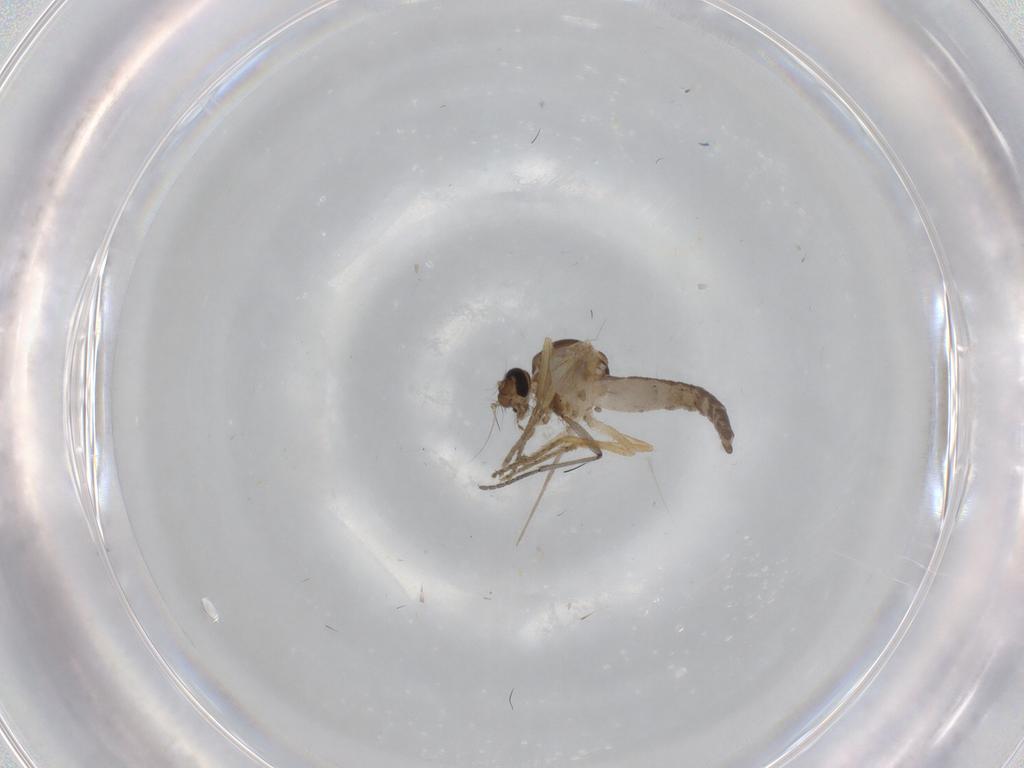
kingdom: Animalia
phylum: Arthropoda
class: Insecta
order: Diptera
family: Ceratopogonidae
